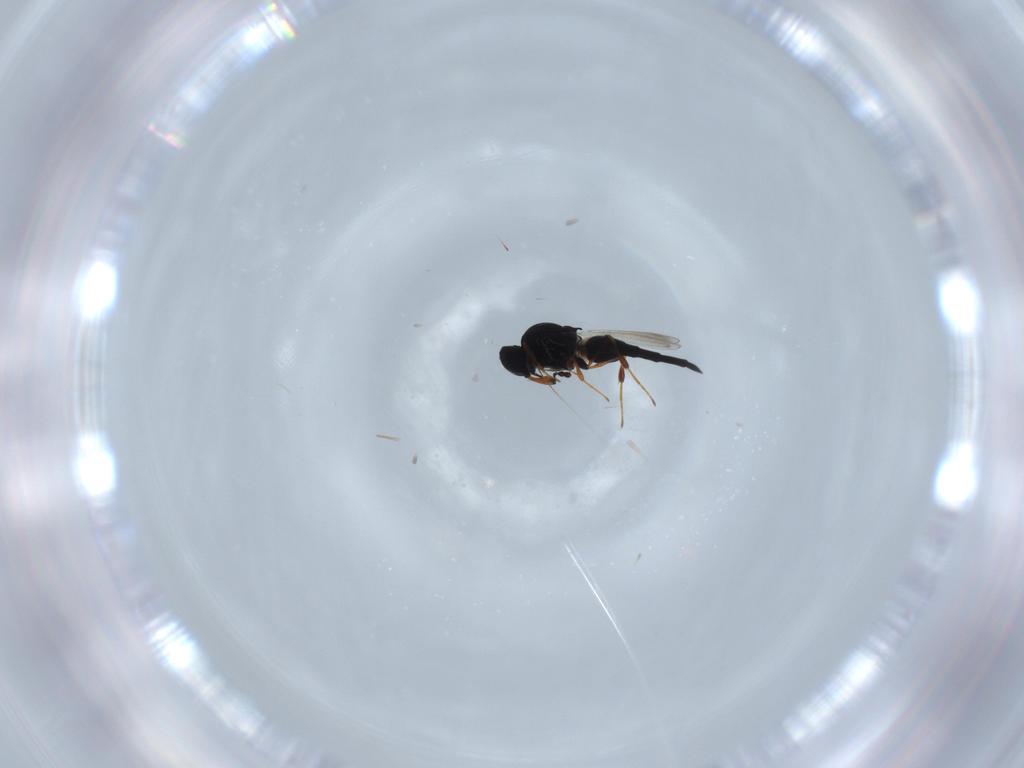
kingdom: Animalia
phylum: Arthropoda
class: Insecta
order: Hymenoptera
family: Platygastridae
